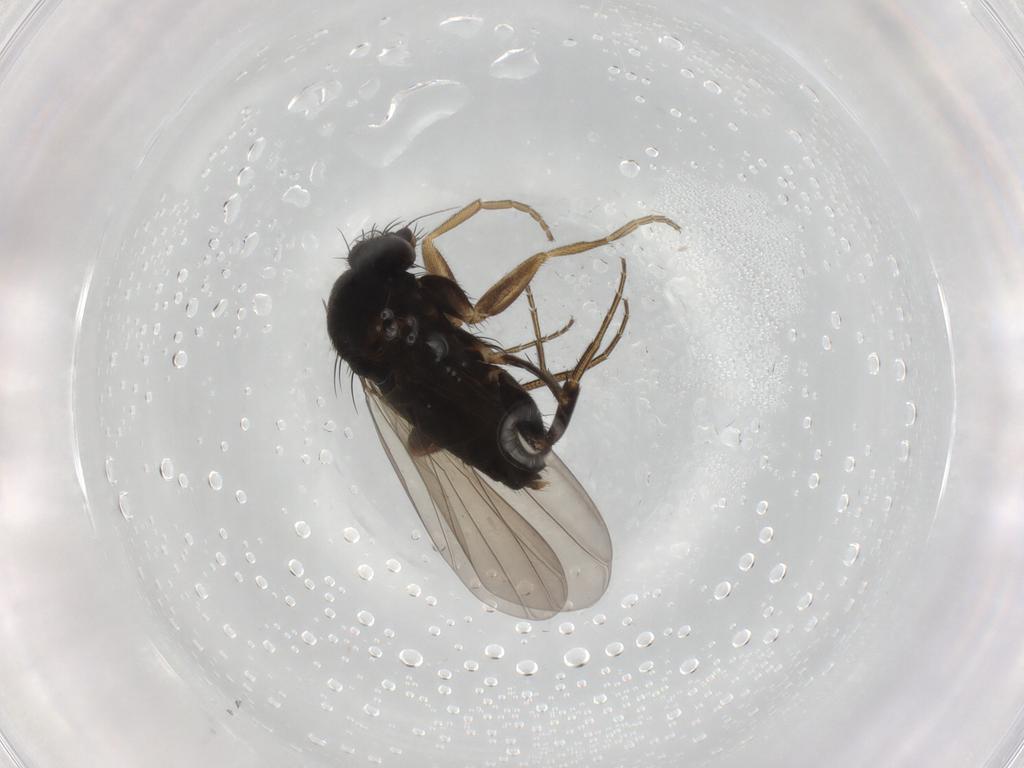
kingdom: Animalia
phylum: Arthropoda
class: Insecta
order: Diptera
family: Phoridae
